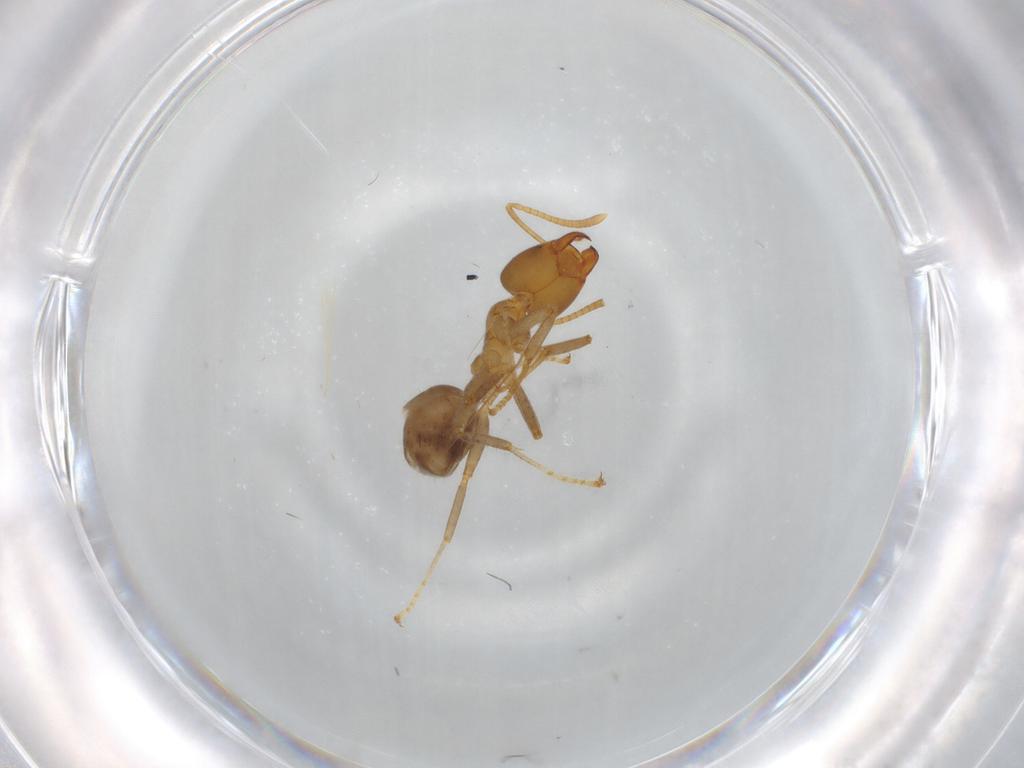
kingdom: Animalia
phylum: Arthropoda
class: Insecta
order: Hymenoptera
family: Formicidae
